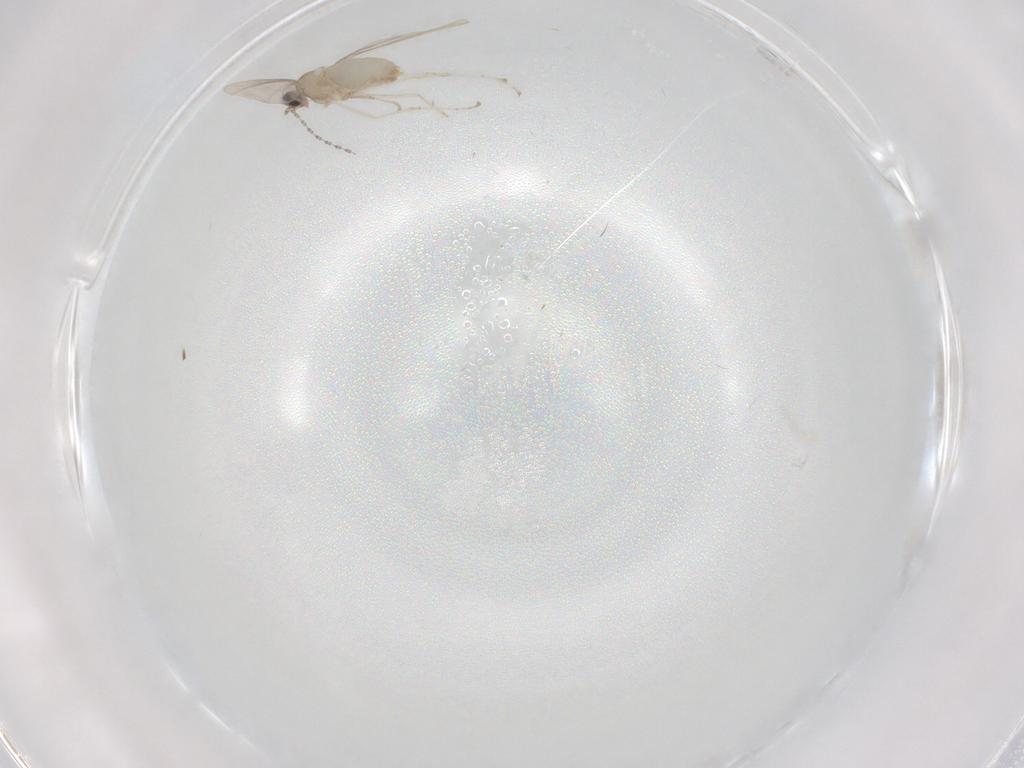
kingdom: Animalia
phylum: Arthropoda
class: Insecta
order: Diptera
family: Cecidomyiidae
